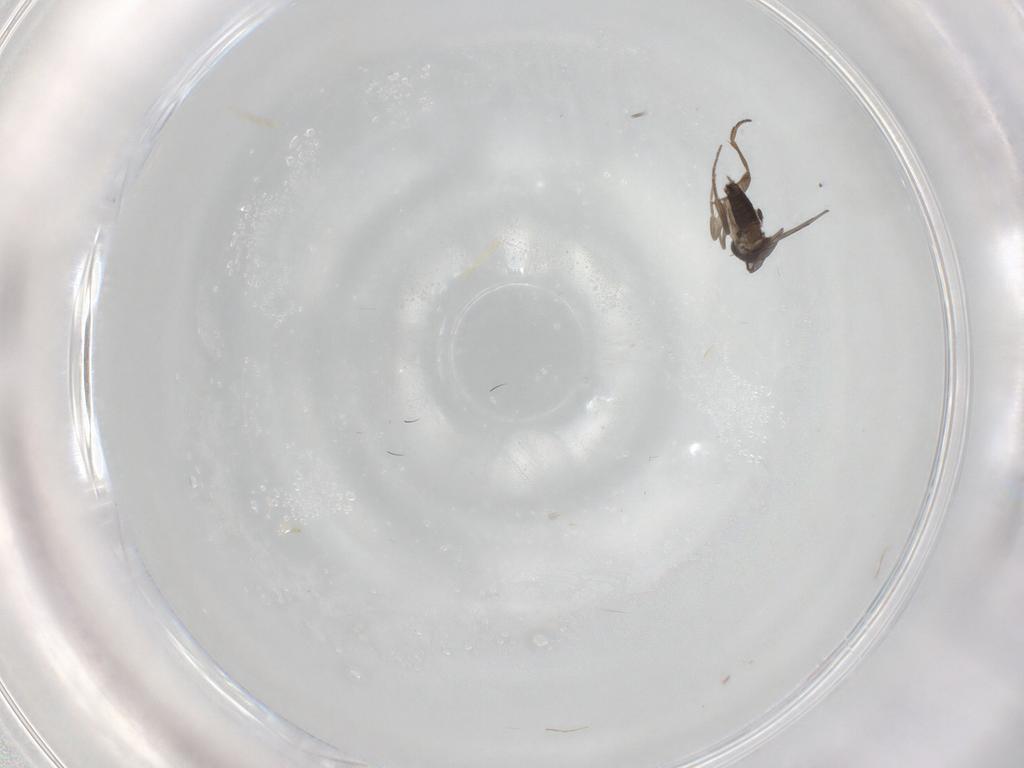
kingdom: Animalia
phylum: Arthropoda
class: Insecta
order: Diptera
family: Phoridae
